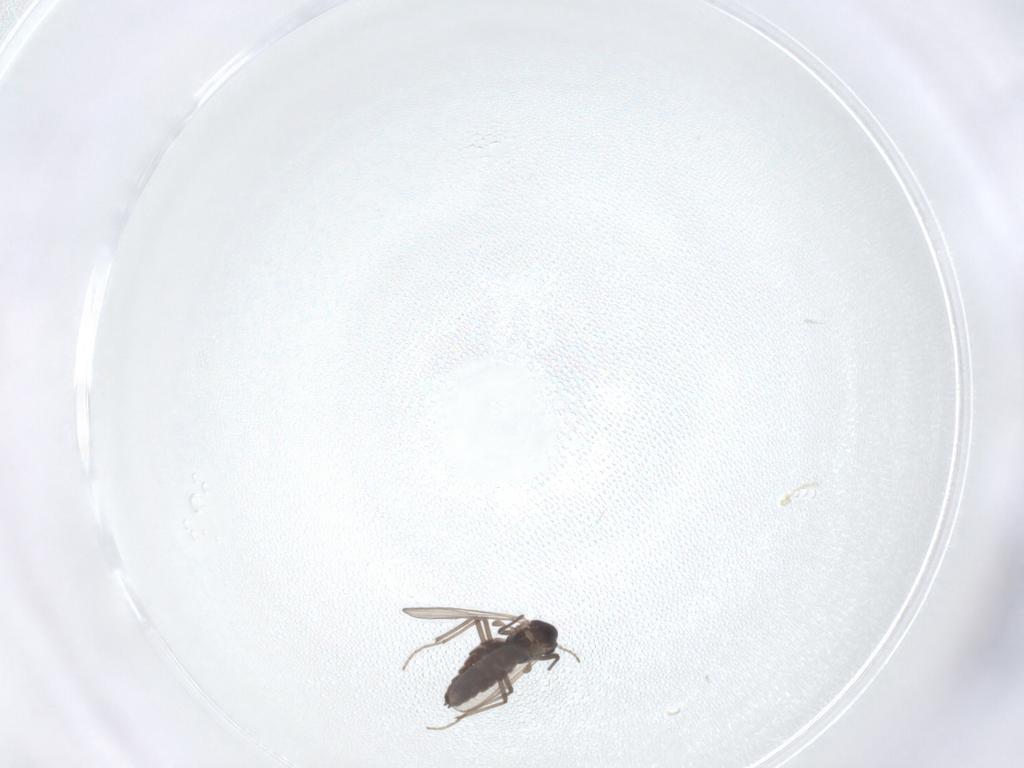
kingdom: Animalia
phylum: Arthropoda
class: Insecta
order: Diptera
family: Chironomidae
